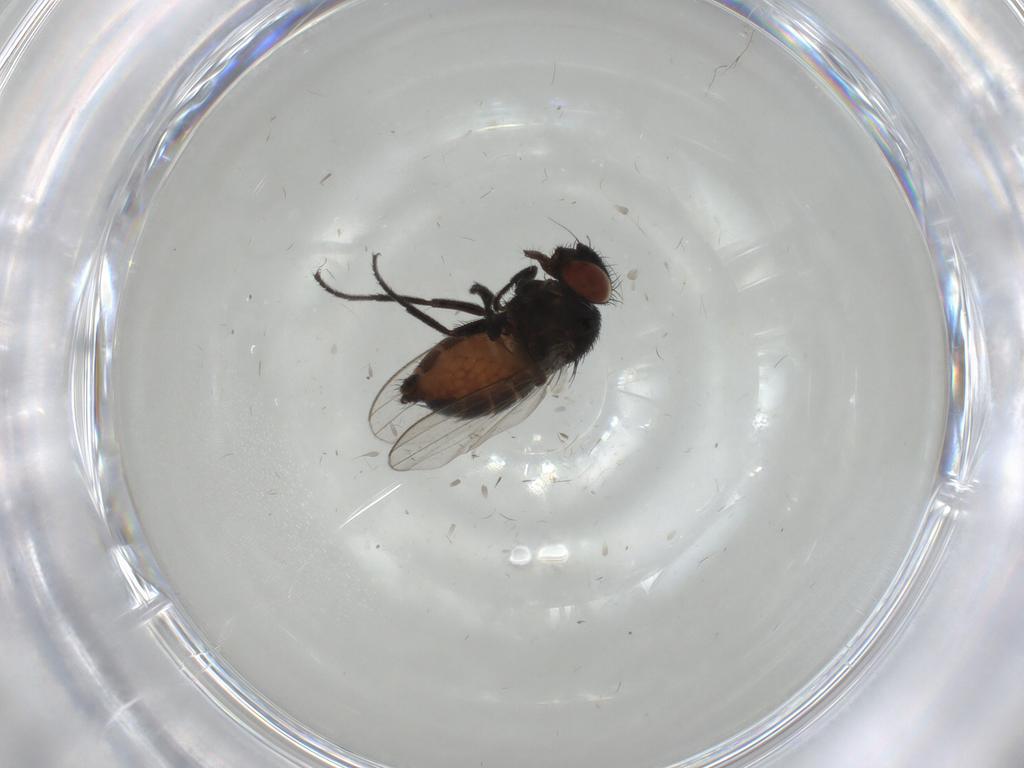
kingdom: Animalia
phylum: Arthropoda
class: Insecta
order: Diptera
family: Milichiidae
